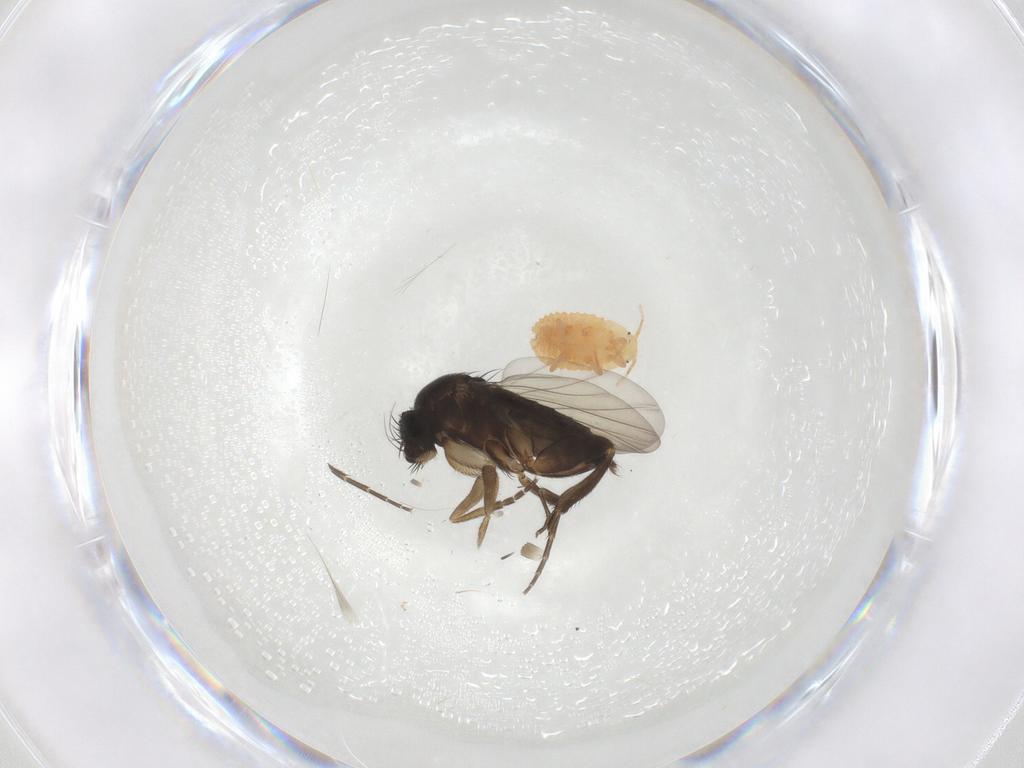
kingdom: Animalia
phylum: Arthropoda
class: Insecta
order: Diptera
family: Phoridae
